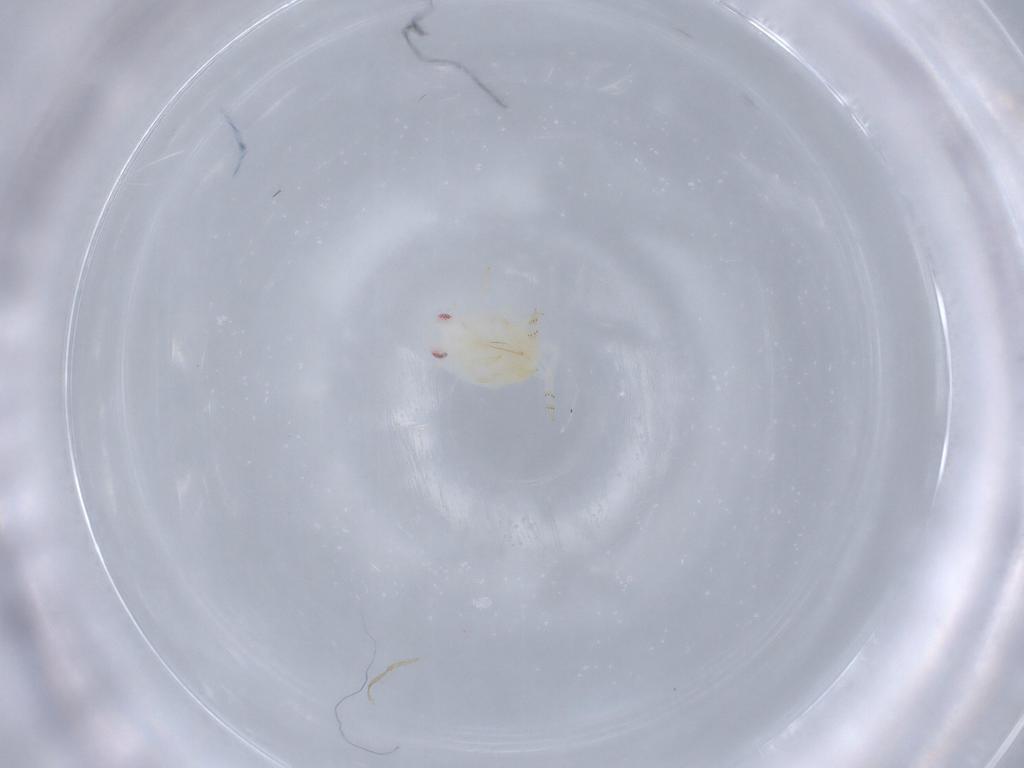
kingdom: Animalia
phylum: Arthropoda
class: Insecta
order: Hemiptera
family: Flatidae
